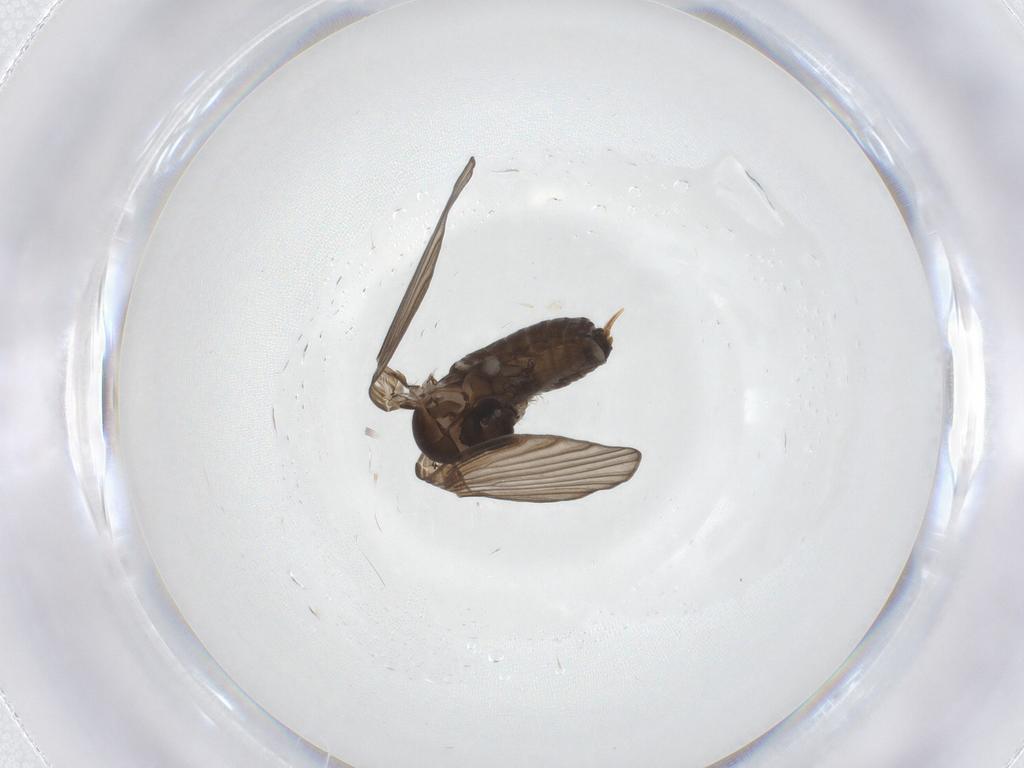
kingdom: Animalia
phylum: Arthropoda
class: Insecta
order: Diptera
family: Psychodidae
